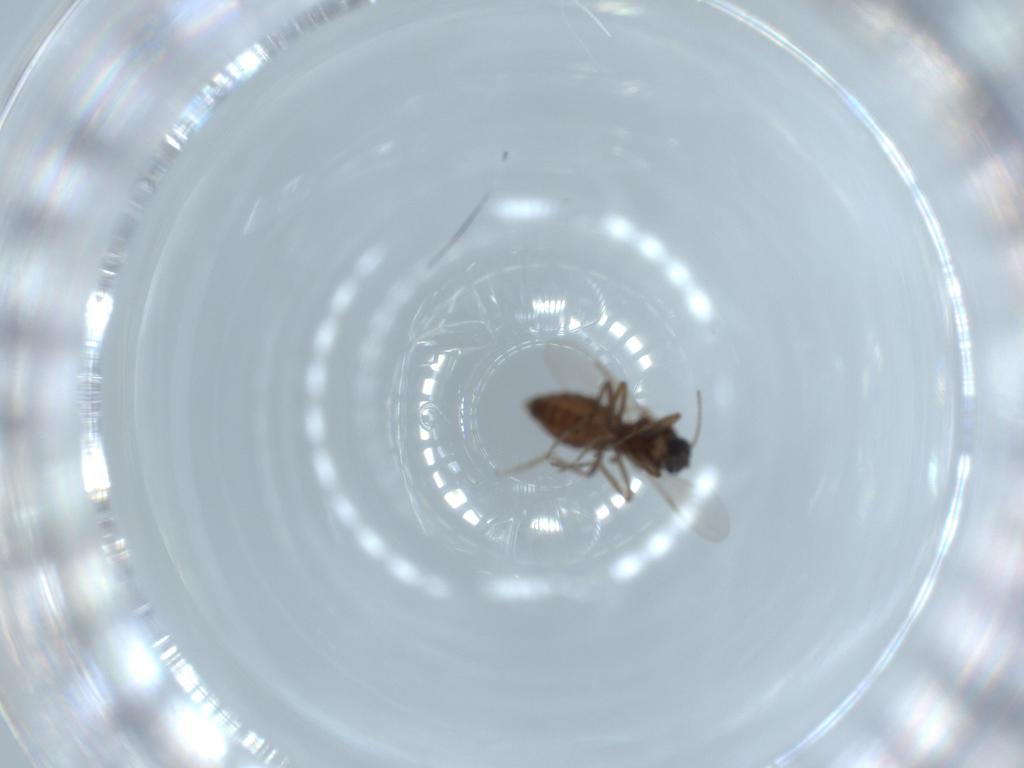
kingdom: Animalia
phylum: Arthropoda
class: Insecta
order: Diptera
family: Ceratopogonidae
